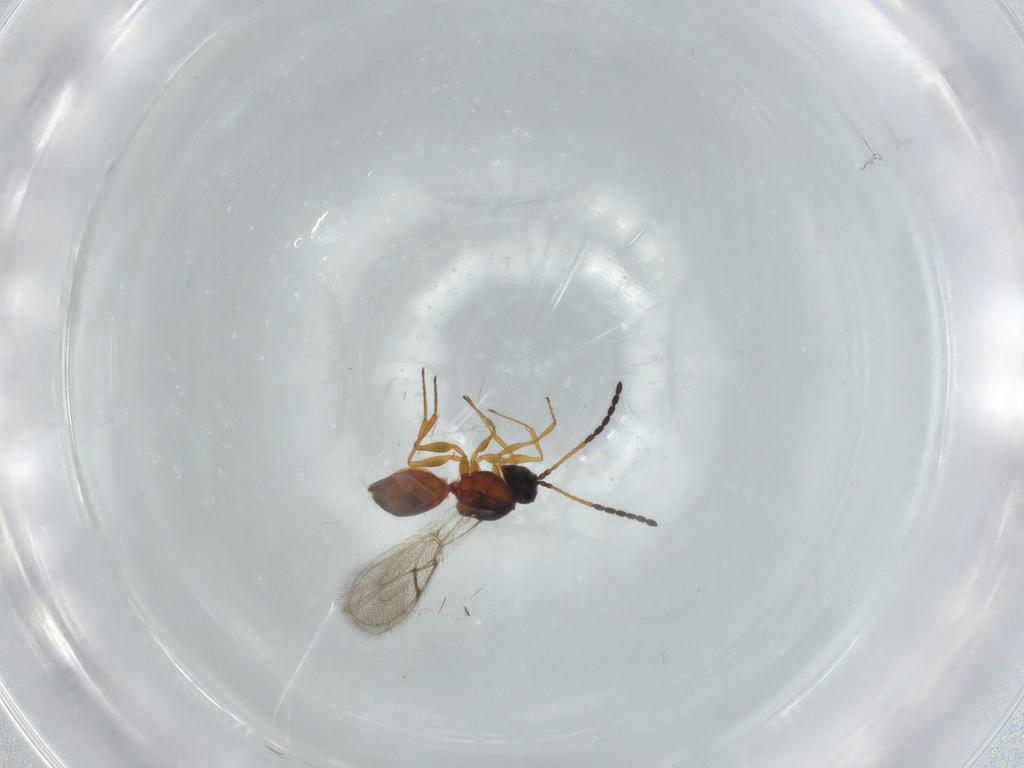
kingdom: Animalia
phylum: Arthropoda
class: Insecta
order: Hymenoptera
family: Figitidae
